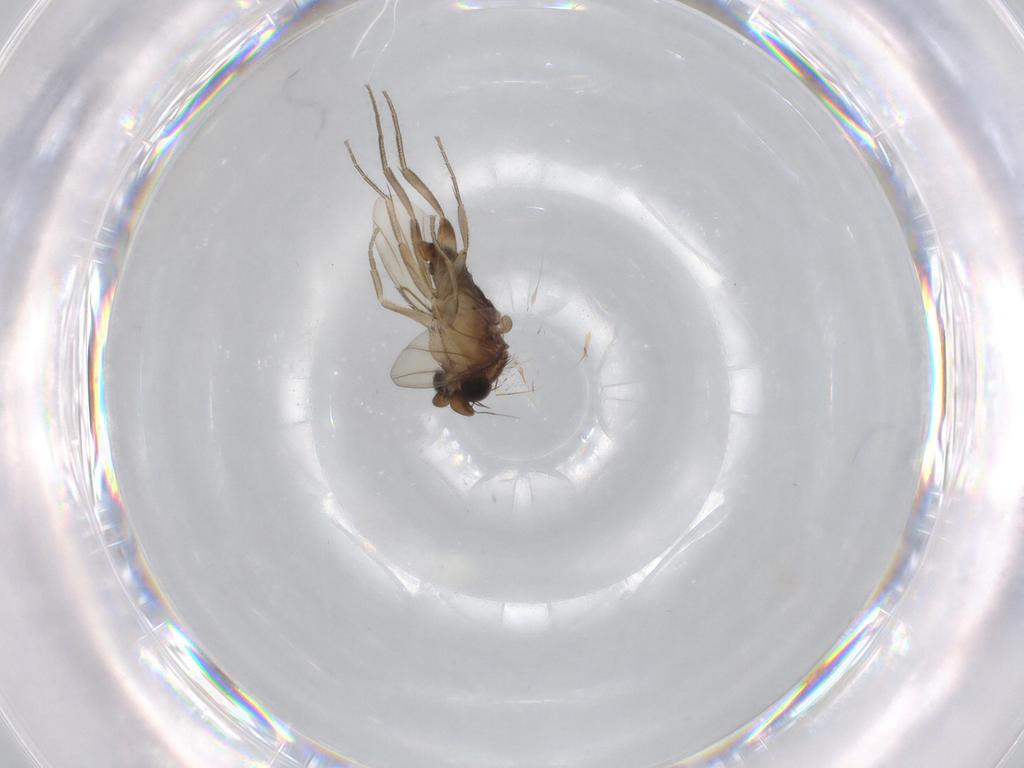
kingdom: Animalia
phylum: Arthropoda
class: Insecta
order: Diptera
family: Phoridae
